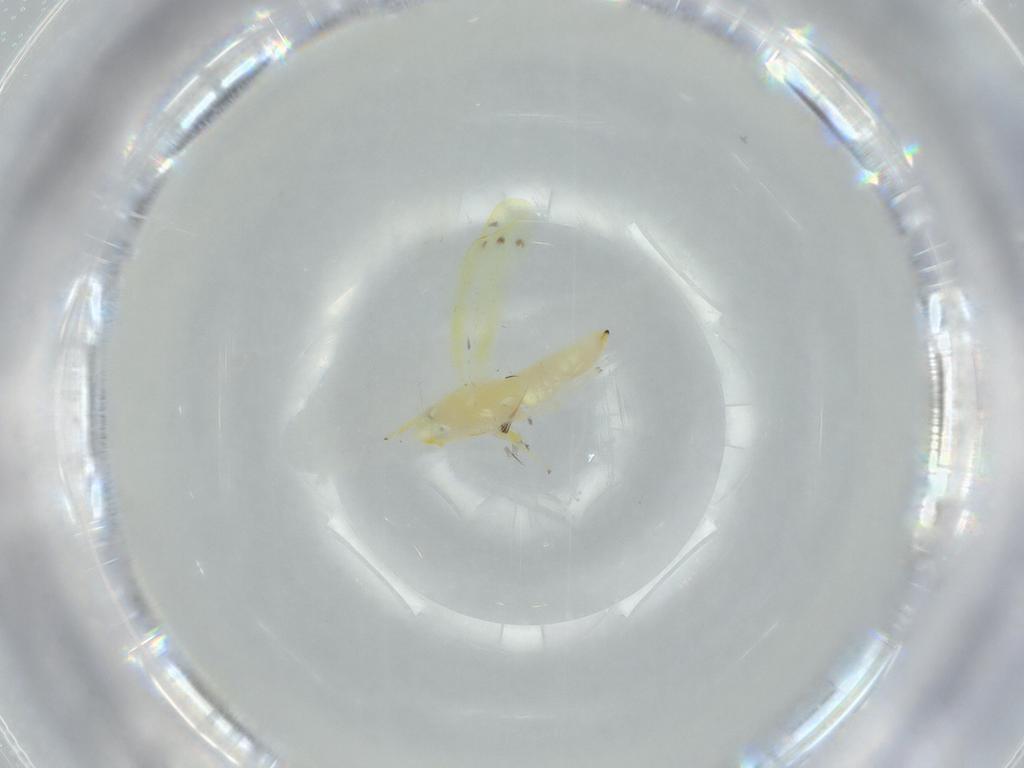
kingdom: Animalia
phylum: Arthropoda
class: Insecta
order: Hemiptera
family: Cicadellidae
